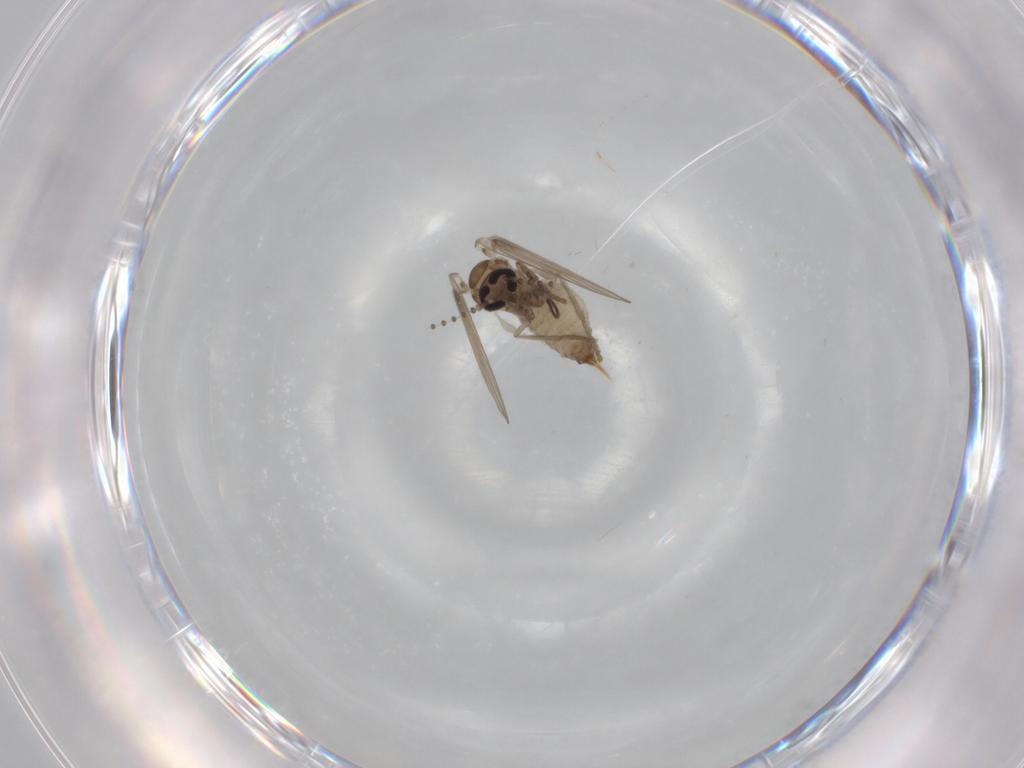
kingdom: Animalia
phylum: Arthropoda
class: Insecta
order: Diptera
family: Psychodidae
